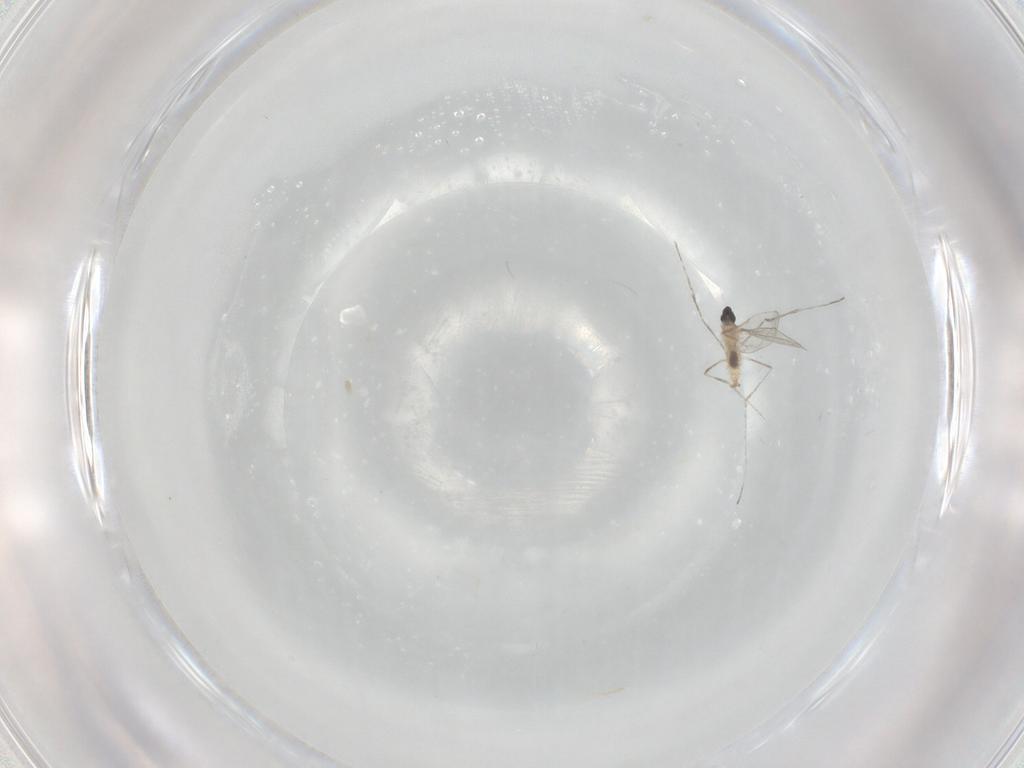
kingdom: Animalia
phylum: Arthropoda
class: Insecta
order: Diptera
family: Cecidomyiidae
